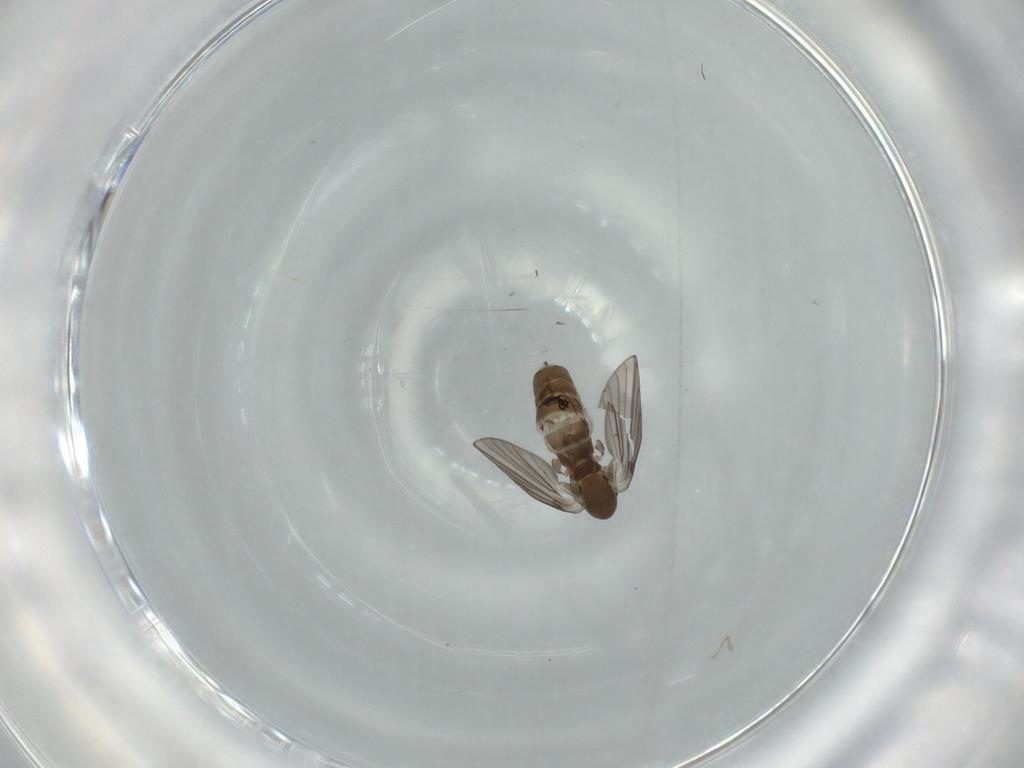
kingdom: Animalia
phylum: Arthropoda
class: Insecta
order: Diptera
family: Psychodidae
